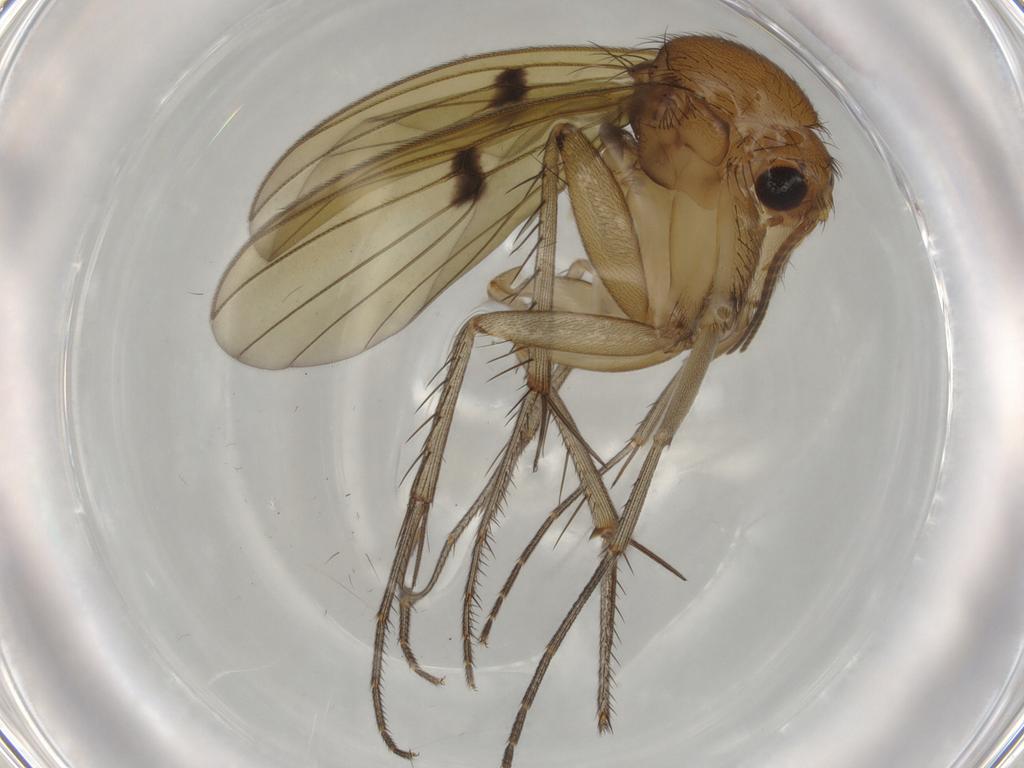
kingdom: Animalia
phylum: Arthropoda
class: Insecta
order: Diptera
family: Mycetophilidae
